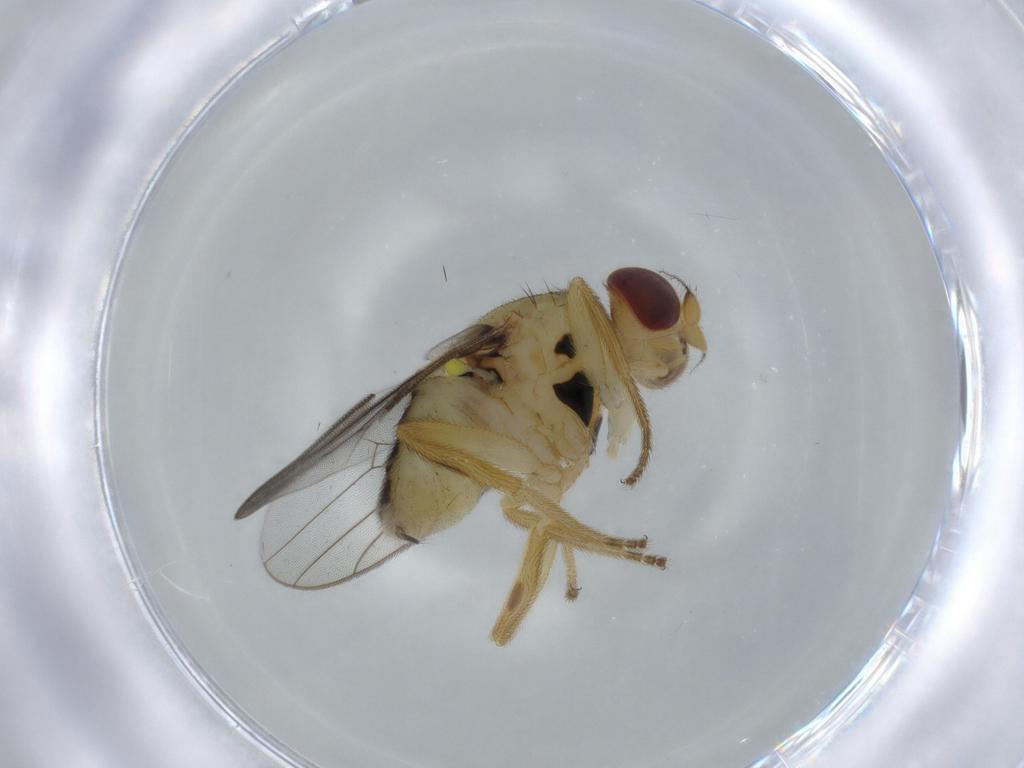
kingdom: Animalia
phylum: Arthropoda
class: Insecta
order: Diptera
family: Chloropidae
